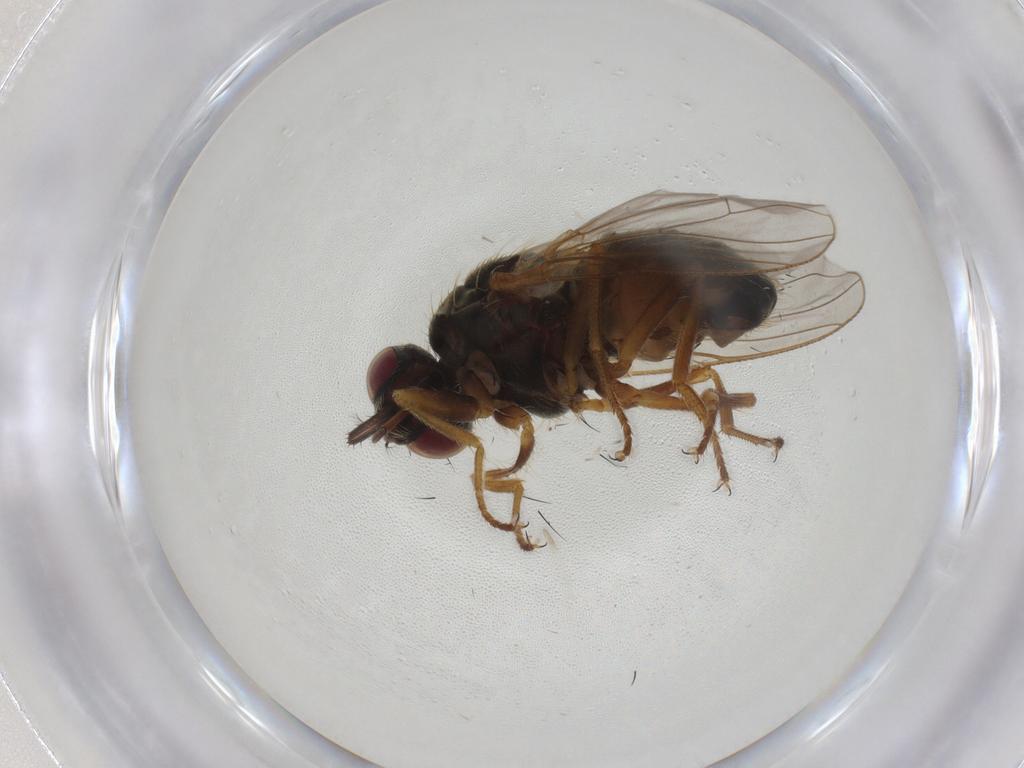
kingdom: Animalia
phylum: Arthropoda
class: Insecta
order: Diptera
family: Muscidae
